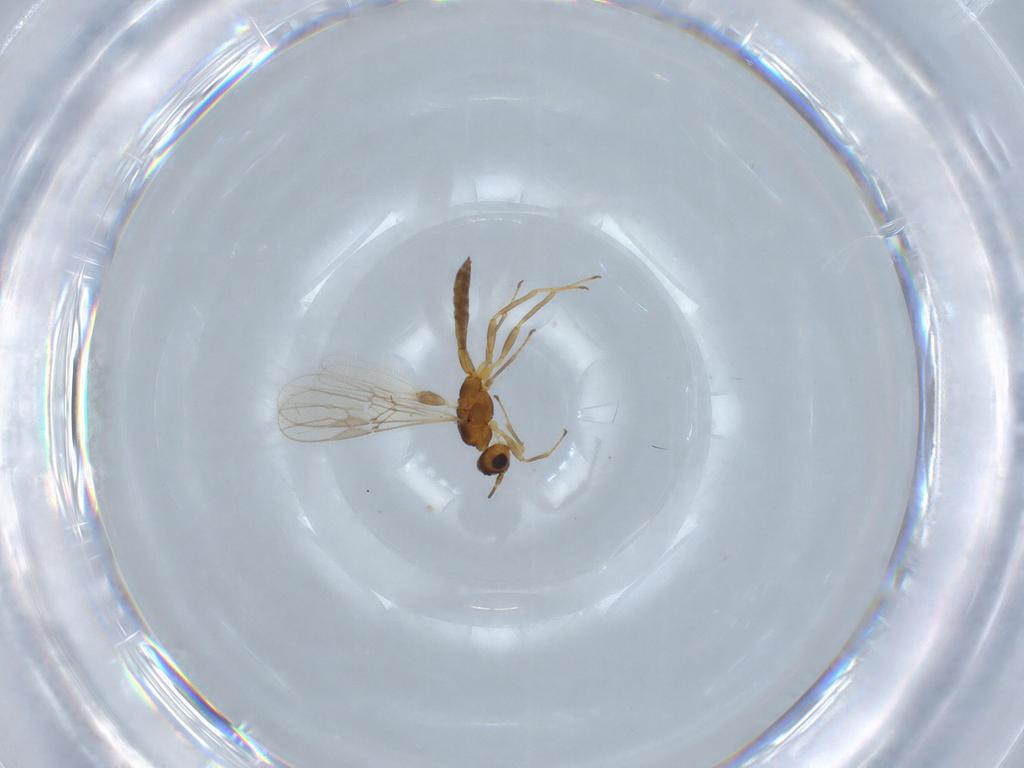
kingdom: Animalia
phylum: Arthropoda
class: Insecta
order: Hymenoptera
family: Braconidae
